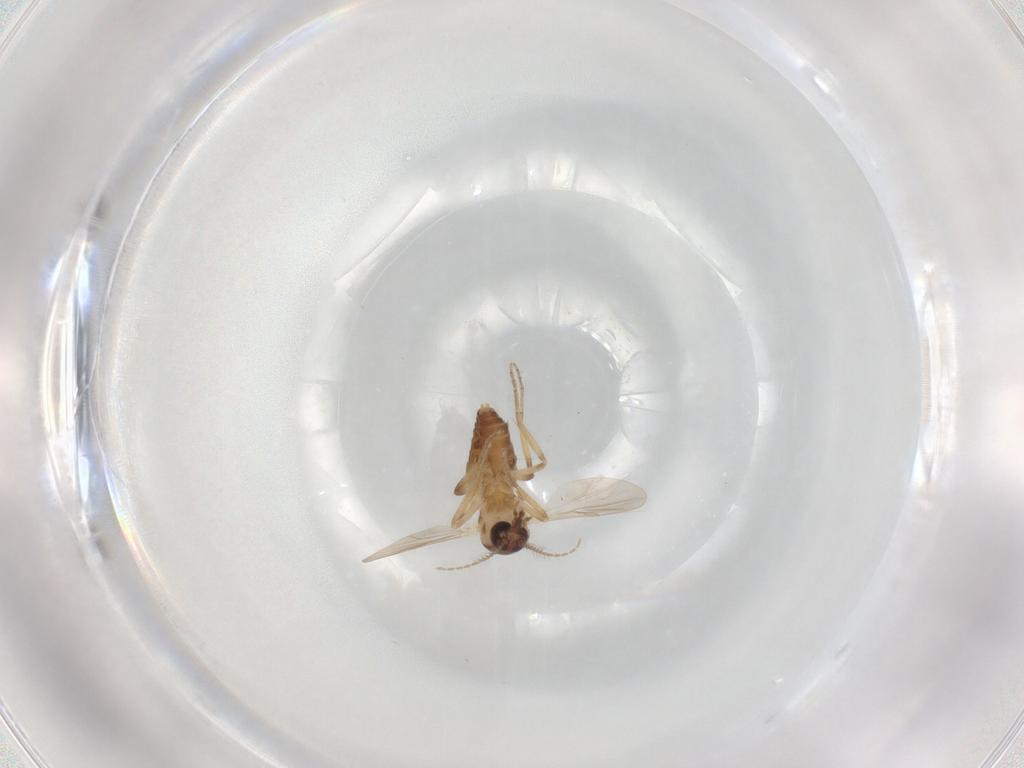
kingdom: Animalia
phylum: Arthropoda
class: Insecta
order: Diptera
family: Ceratopogonidae
